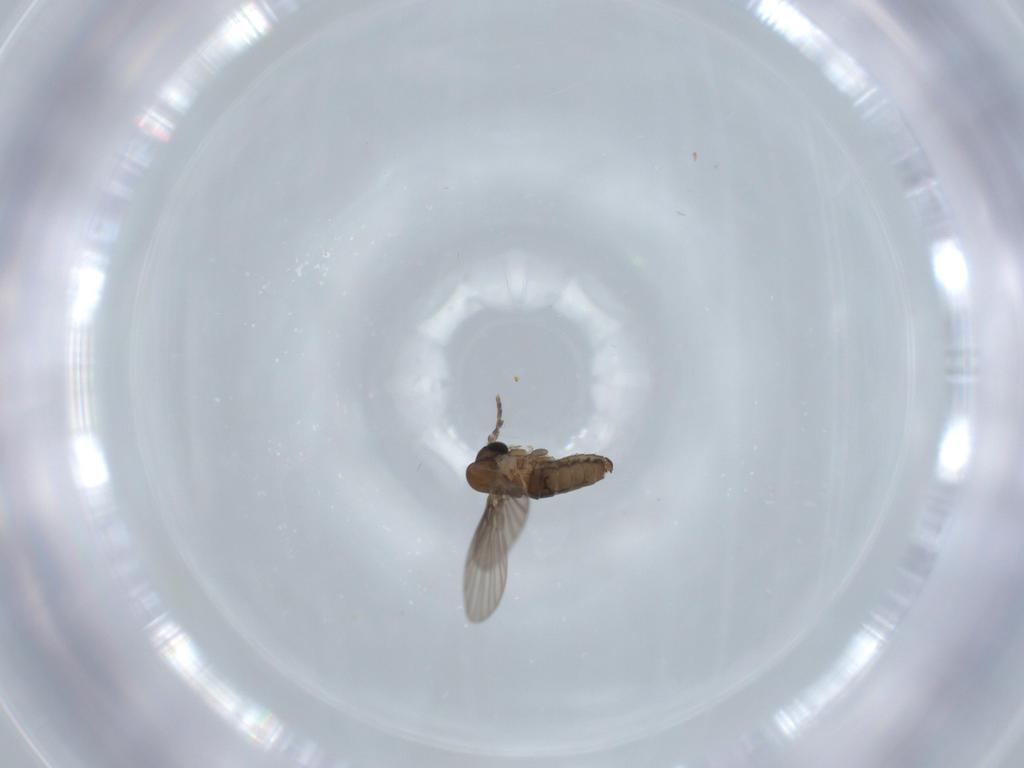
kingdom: Animalia
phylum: Arthropoda
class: Insecta
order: Diptera
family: Psychodidae
